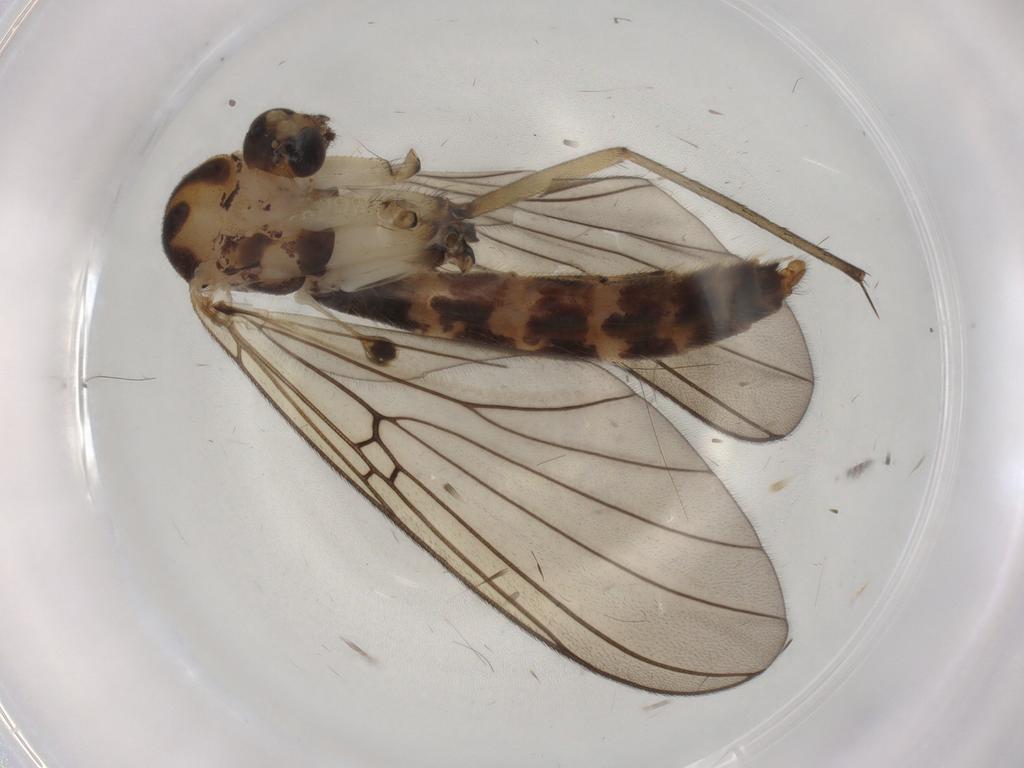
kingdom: Animalia
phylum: Arthropoda
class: Insecta
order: Diptera
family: Mycetophilidae
